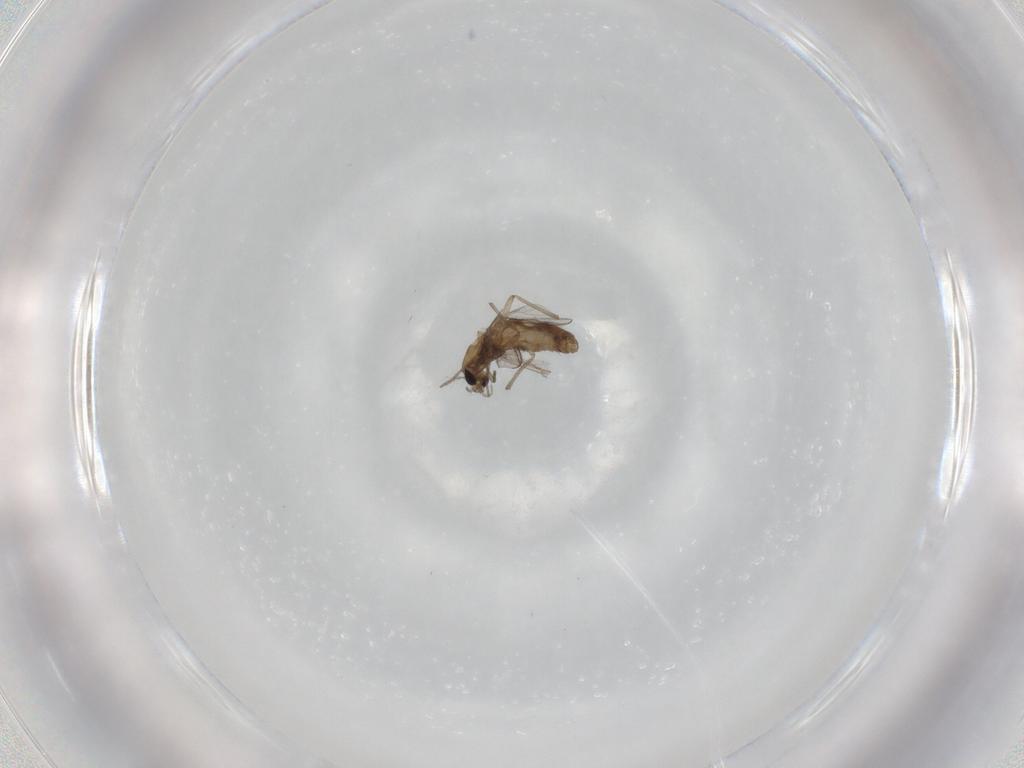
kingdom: Animalia
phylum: Arthropoda
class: Insecta
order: Diptera
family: Chironomidae
